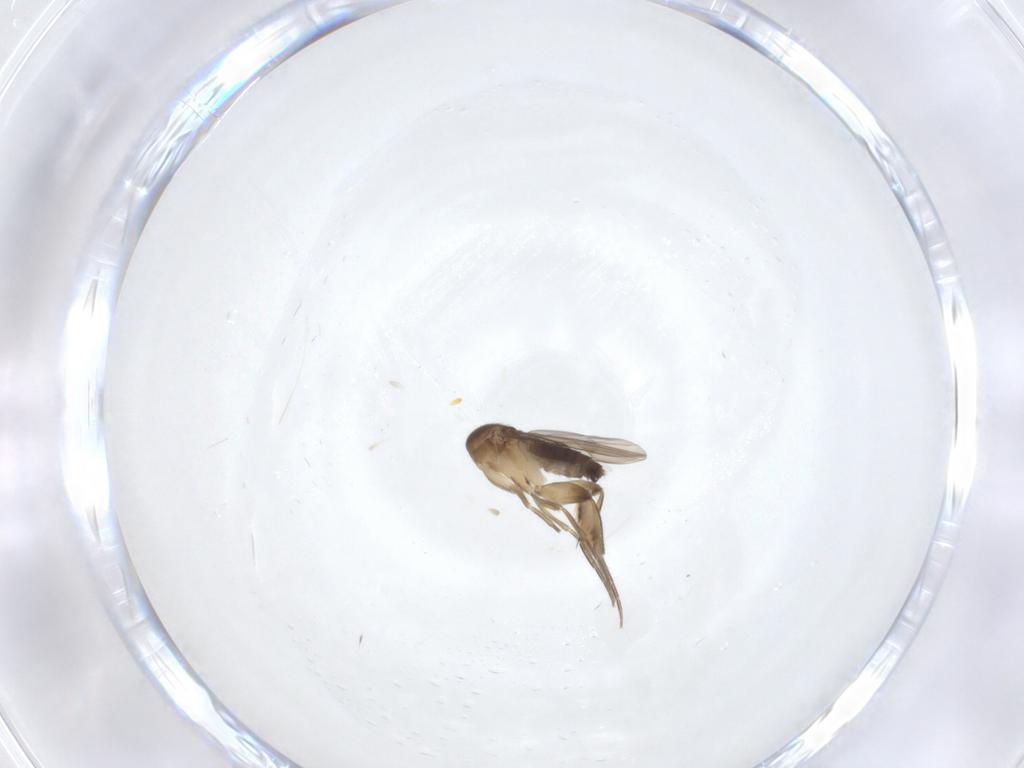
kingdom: Animalia
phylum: Arthropoda
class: Insecta
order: Diptera
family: Phoridae
